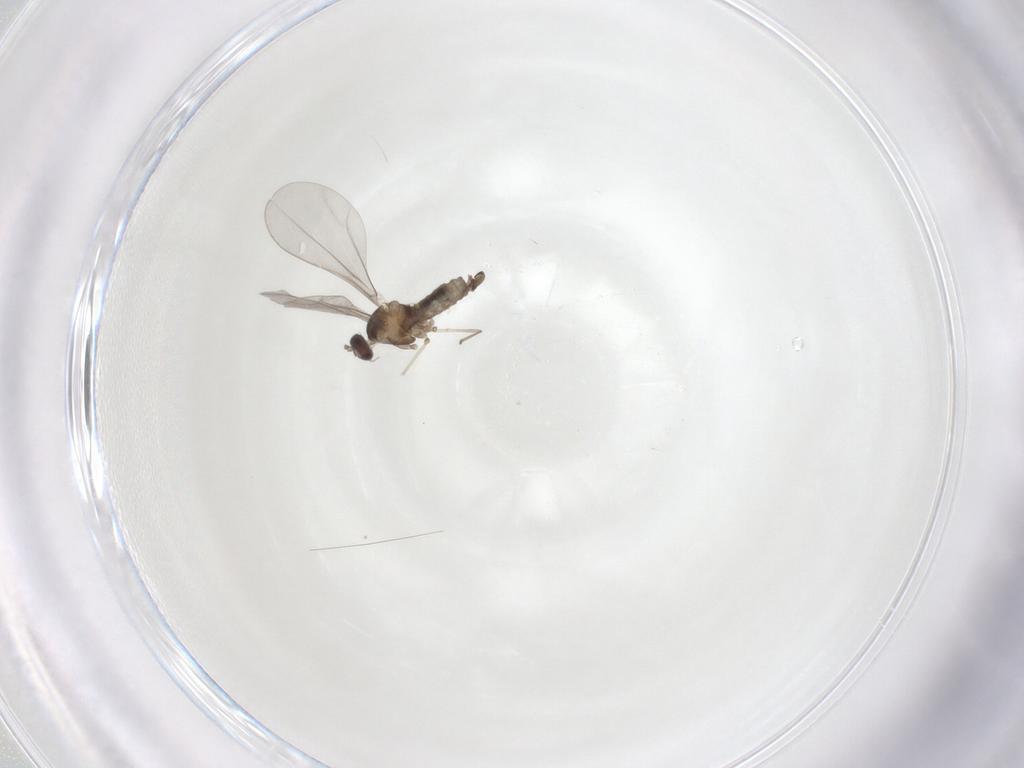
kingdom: Animalia
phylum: Arthropoda
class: Insecta
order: Diptera
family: Cecidomyiidae
